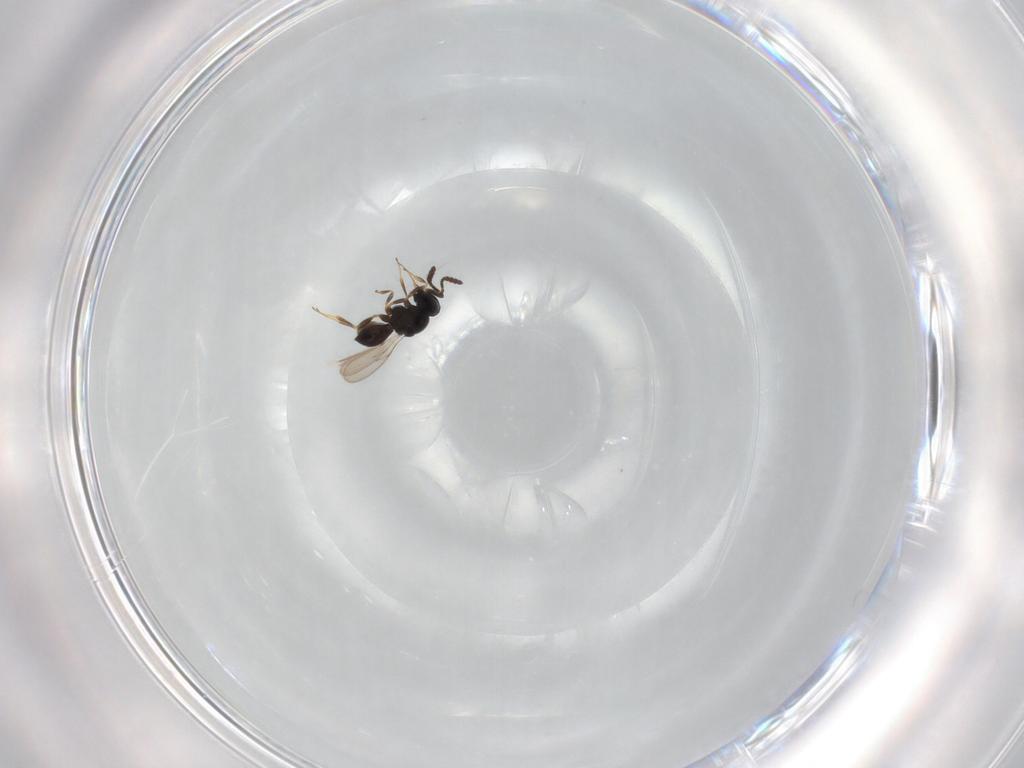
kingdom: Animalia
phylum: Arthropoda
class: Insecta
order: Hymenoptera
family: Scelionidae
